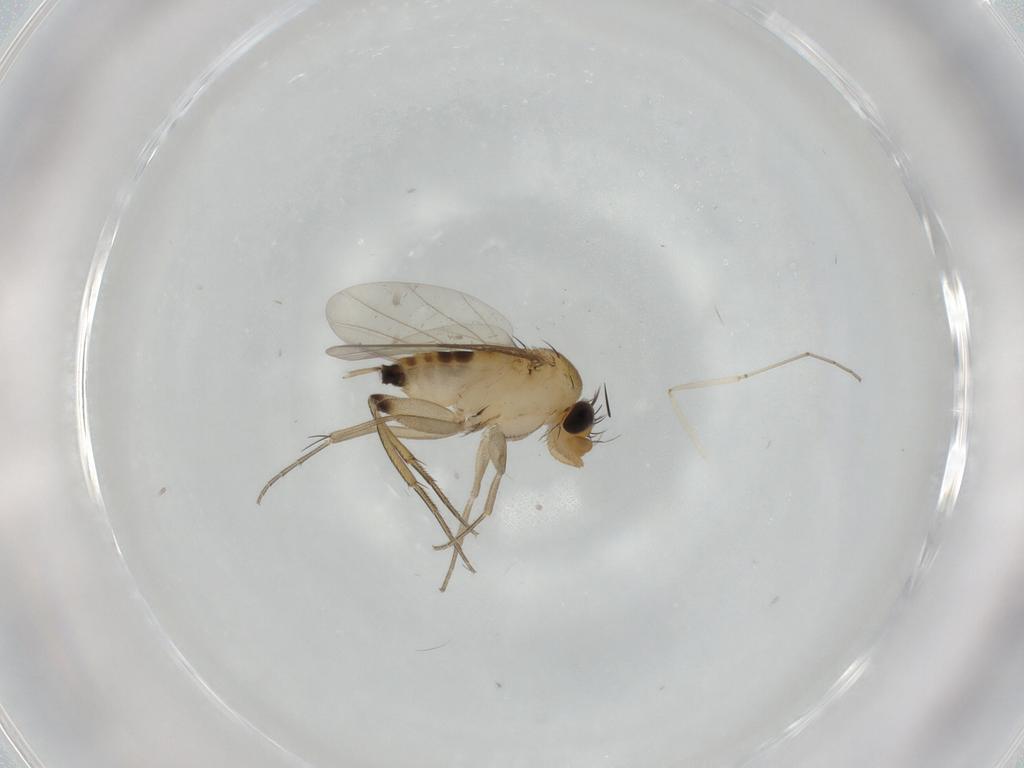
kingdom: Animalia
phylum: Arthropoda
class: Insecta
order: Diptera
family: Phoridae
